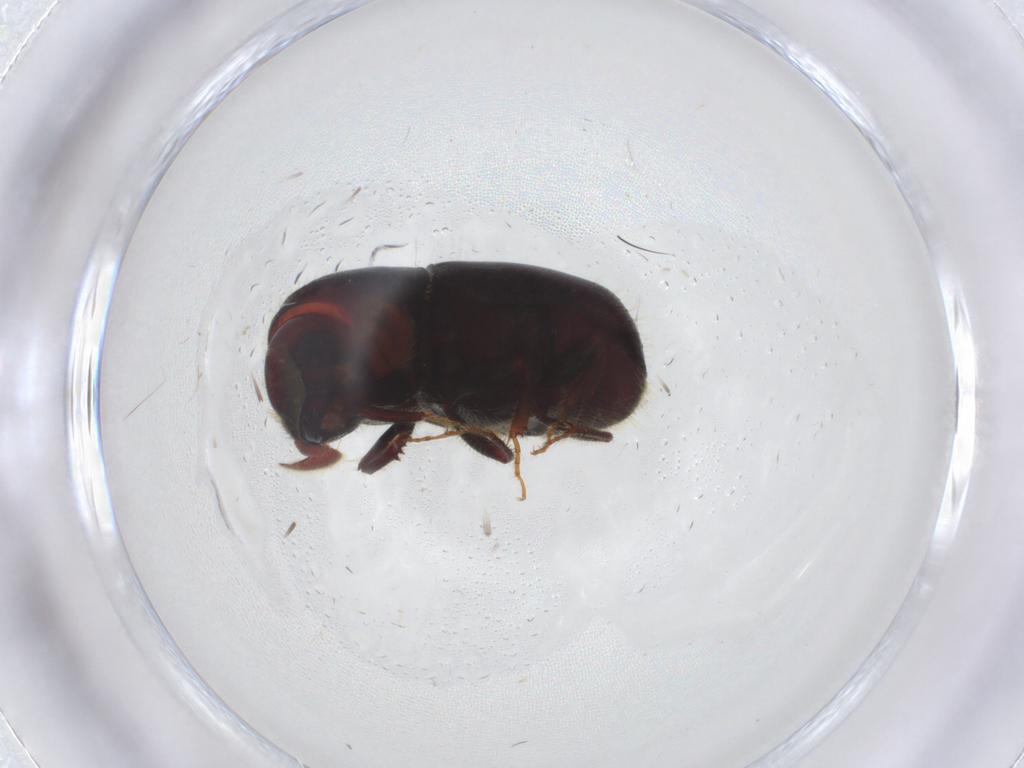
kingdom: Animalia
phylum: Arthropoda
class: Insecta
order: Coleoptera
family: Curculionidae
